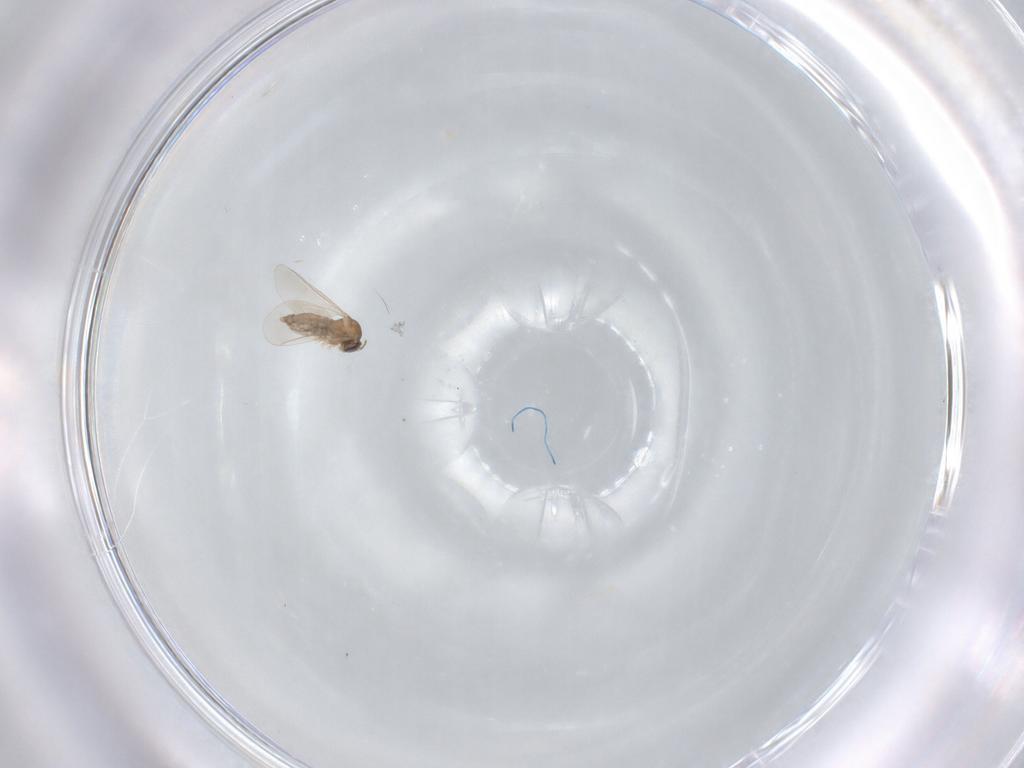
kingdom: Animalia
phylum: Arthropoda
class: Insecta
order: Diptera
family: Cecidomyiidae
